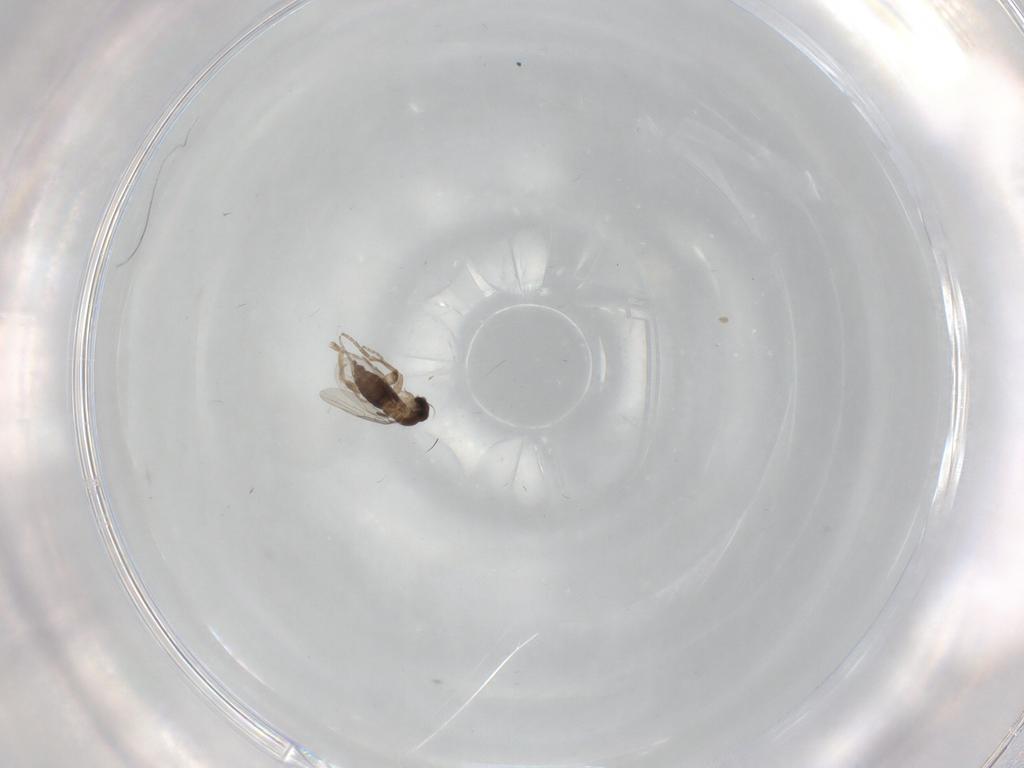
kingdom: Animalia
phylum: Arthropoda
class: Insecta
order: Diptera
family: Phoridae
